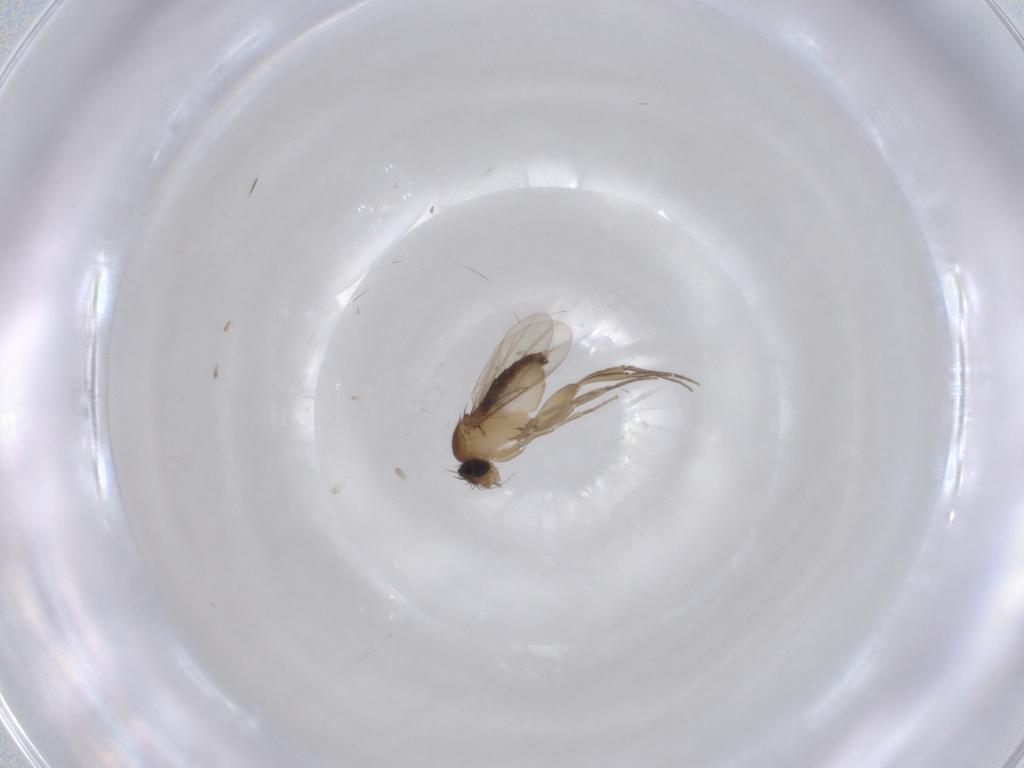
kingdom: Animalia
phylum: Arthropoda
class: Insecta
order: Diptera
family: Phoridae
